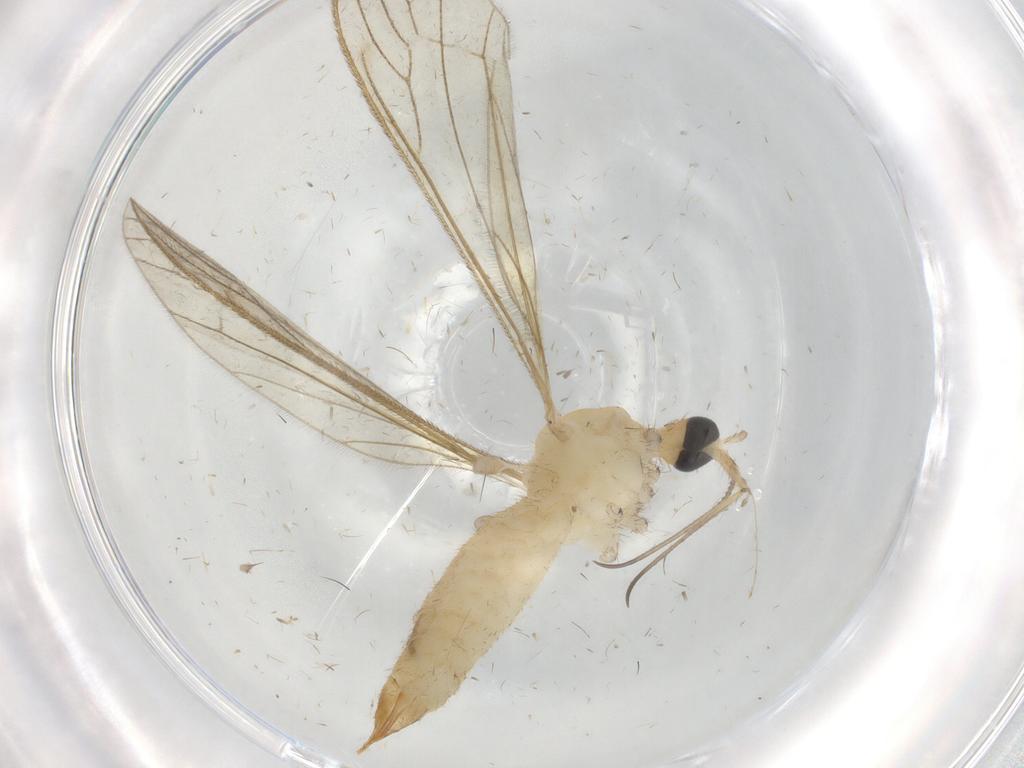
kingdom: Animalia
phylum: Arthropoda
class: Insecta
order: Diptera
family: Limoniidae
